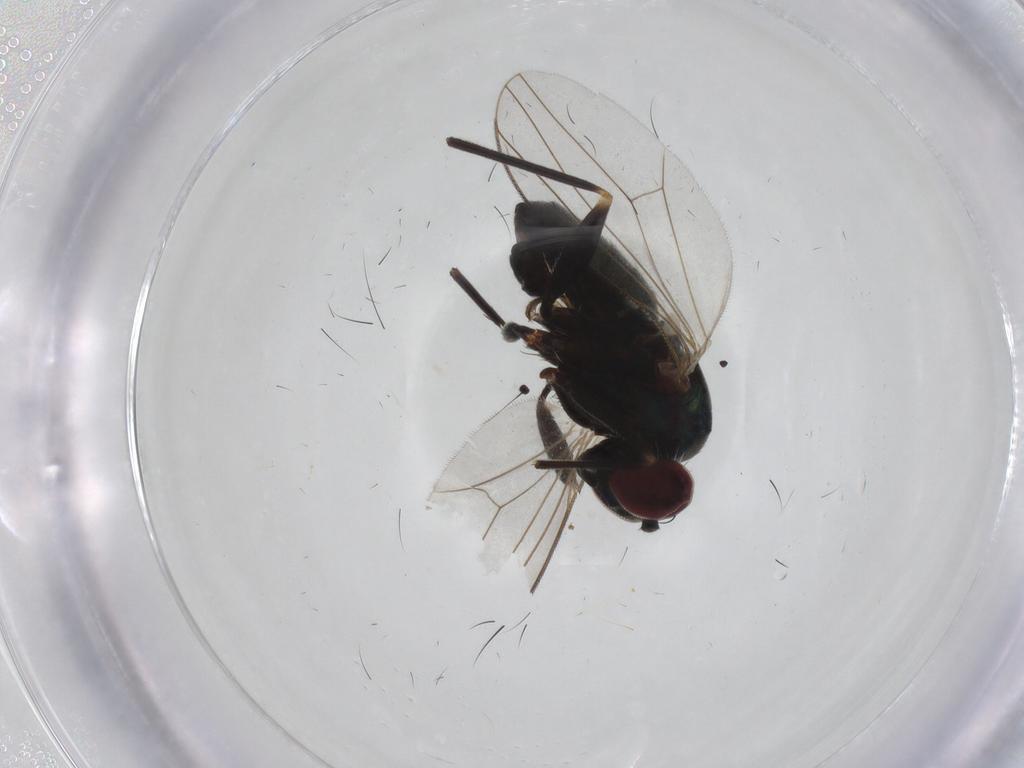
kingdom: Animalia
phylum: Arthropoda
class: Insecta
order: Diptera
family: Dolichopodidae
